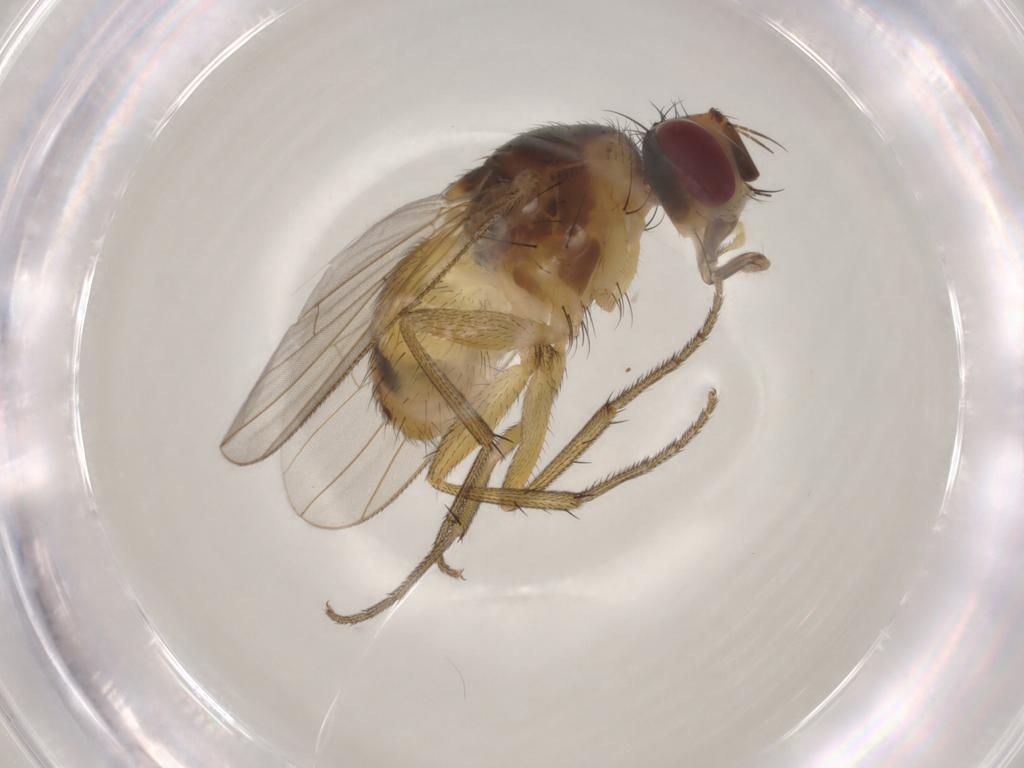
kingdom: Animalia
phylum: Arthropoda
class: Insecta
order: Diptera
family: Muscidae
